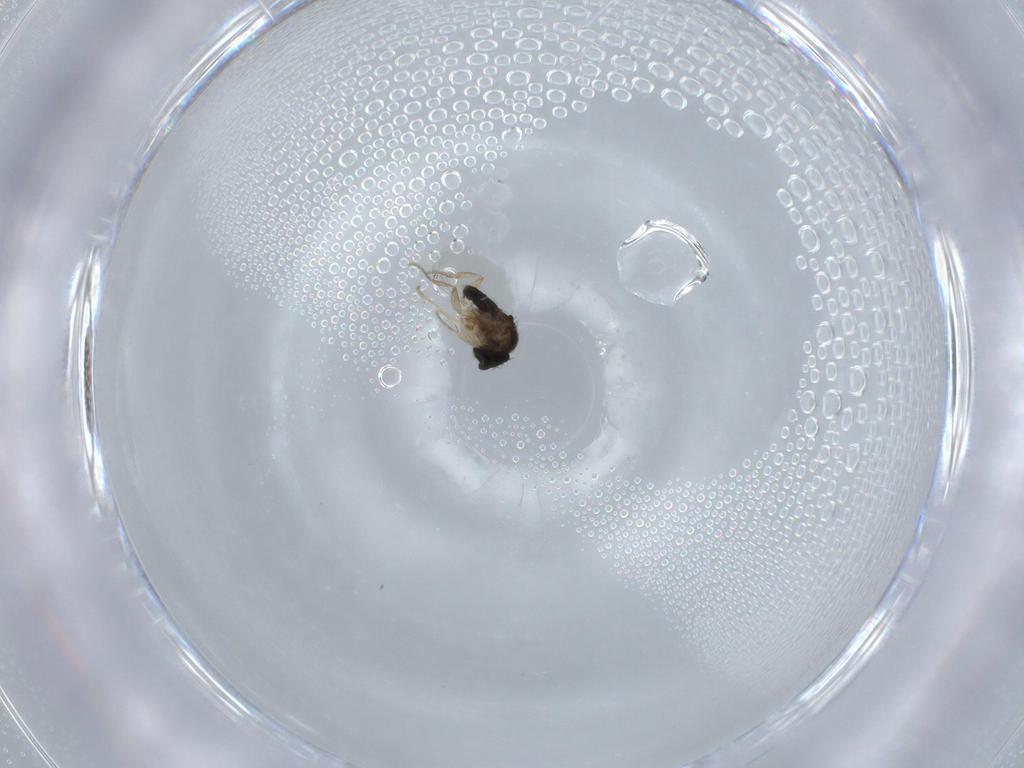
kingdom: Animalia
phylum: Arthropoda
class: Insecta
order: Diptera
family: Phoridae
